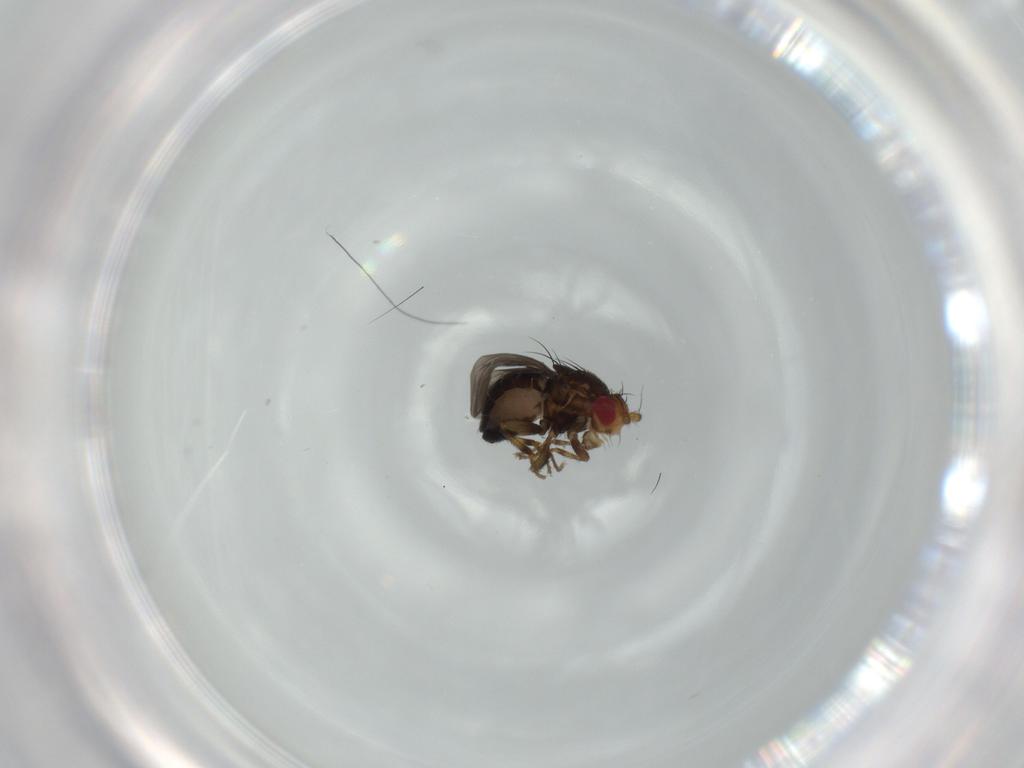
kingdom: Animalia
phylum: Arthropoda
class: Insecta
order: Diptera
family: Sphaeroceridae
